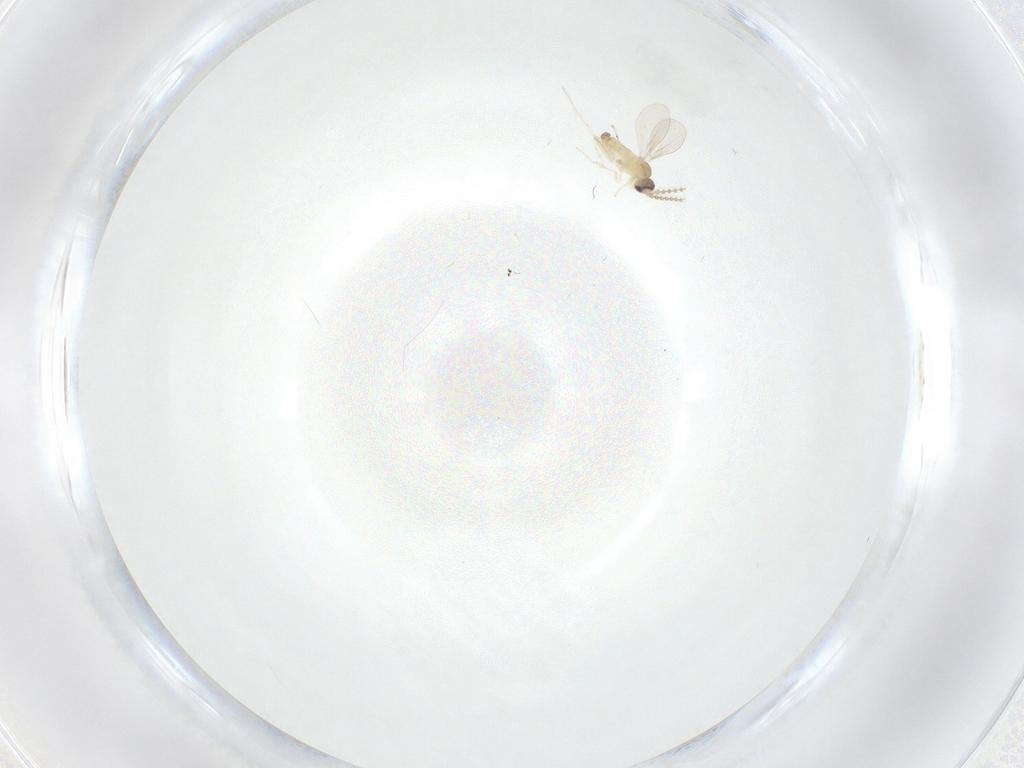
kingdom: Animalia
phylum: Arthropoda
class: Insecta
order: Diptera
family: Cecidomyiidae
